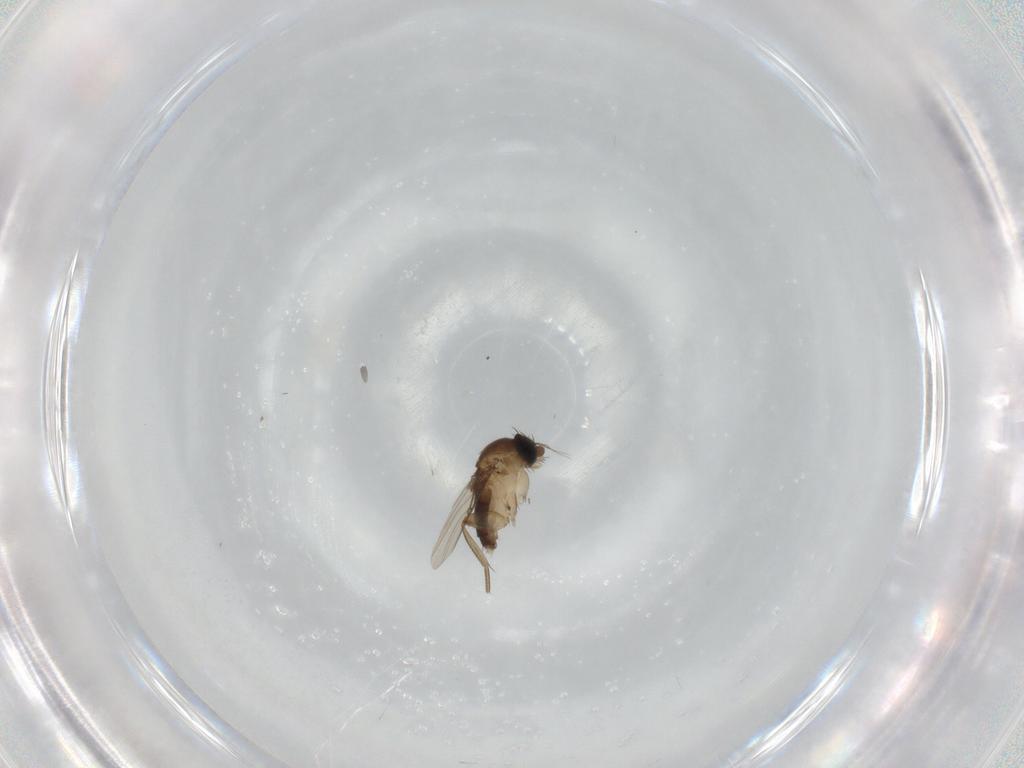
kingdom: Animalia
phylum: Arthropoda
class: Insecta
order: Diptera
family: Phoridae
